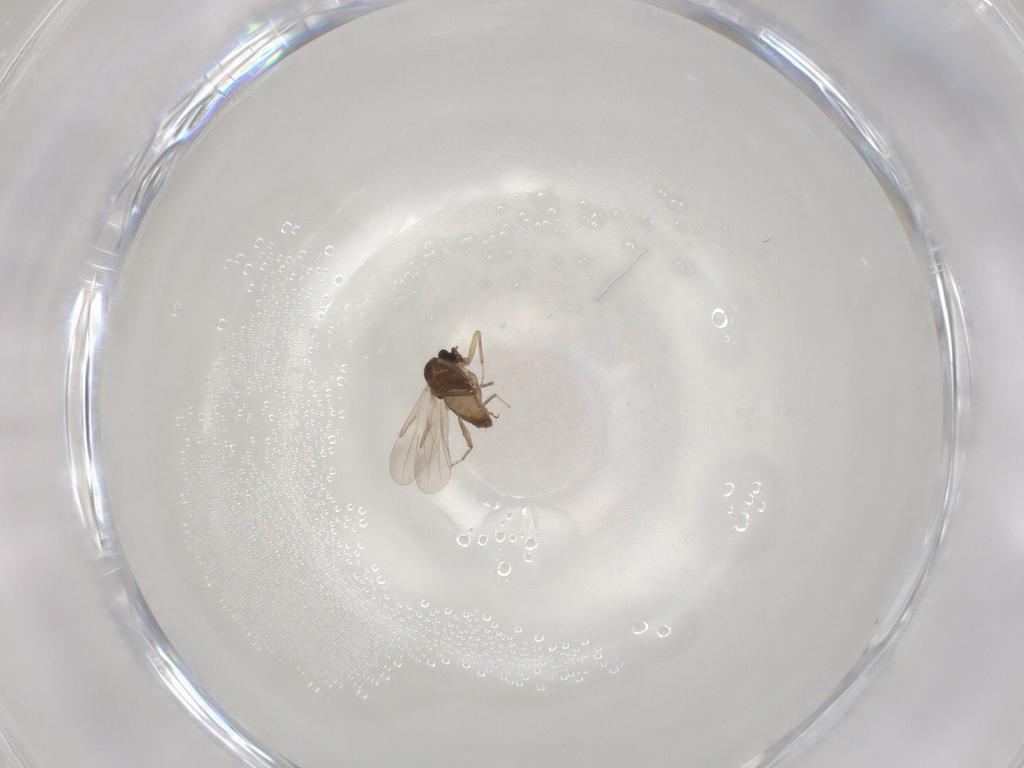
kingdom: Animalia
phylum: Arthropoda
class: Insecta
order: Diptera
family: Ceratopogonidae
